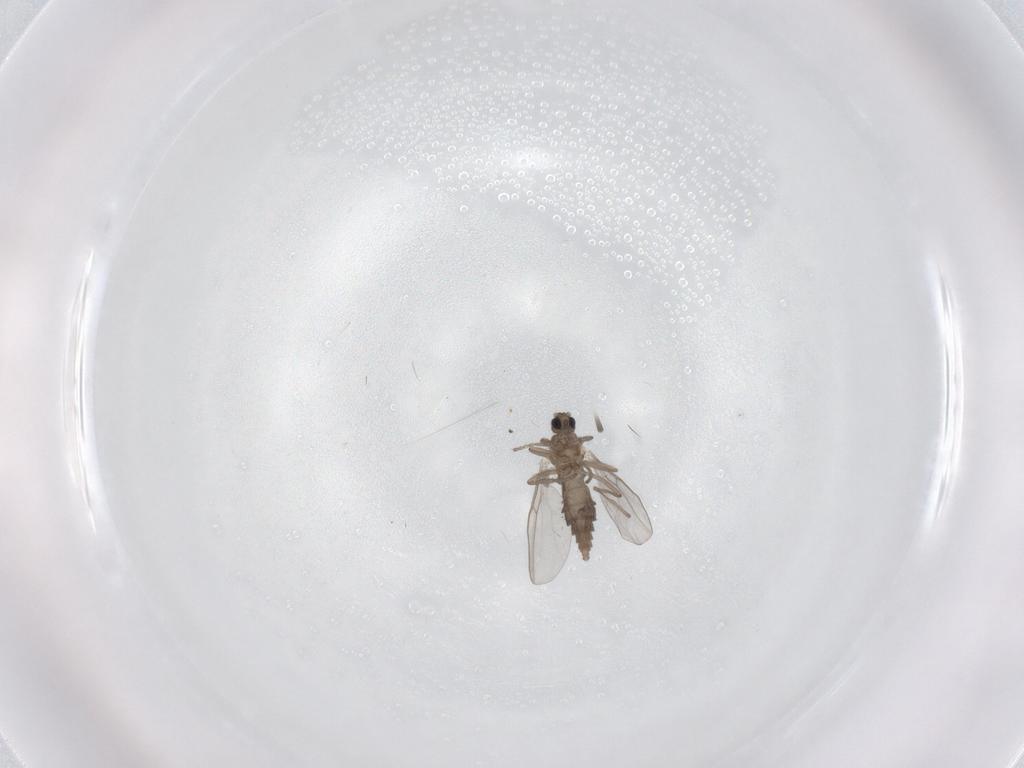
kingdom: Animalia
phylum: Arthropoda
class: Insecta
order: Diptera
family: Cecidomyiidae
